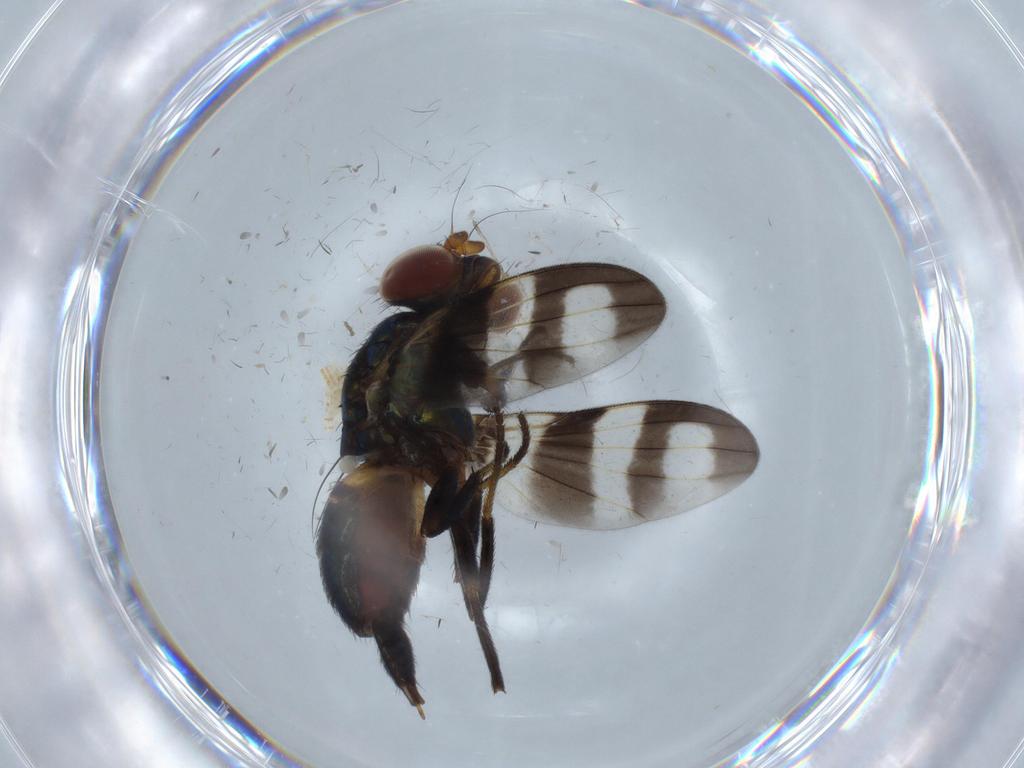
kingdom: Animalia
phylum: Arthropoda
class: Insecta
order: Diptera
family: Ulidiidae
